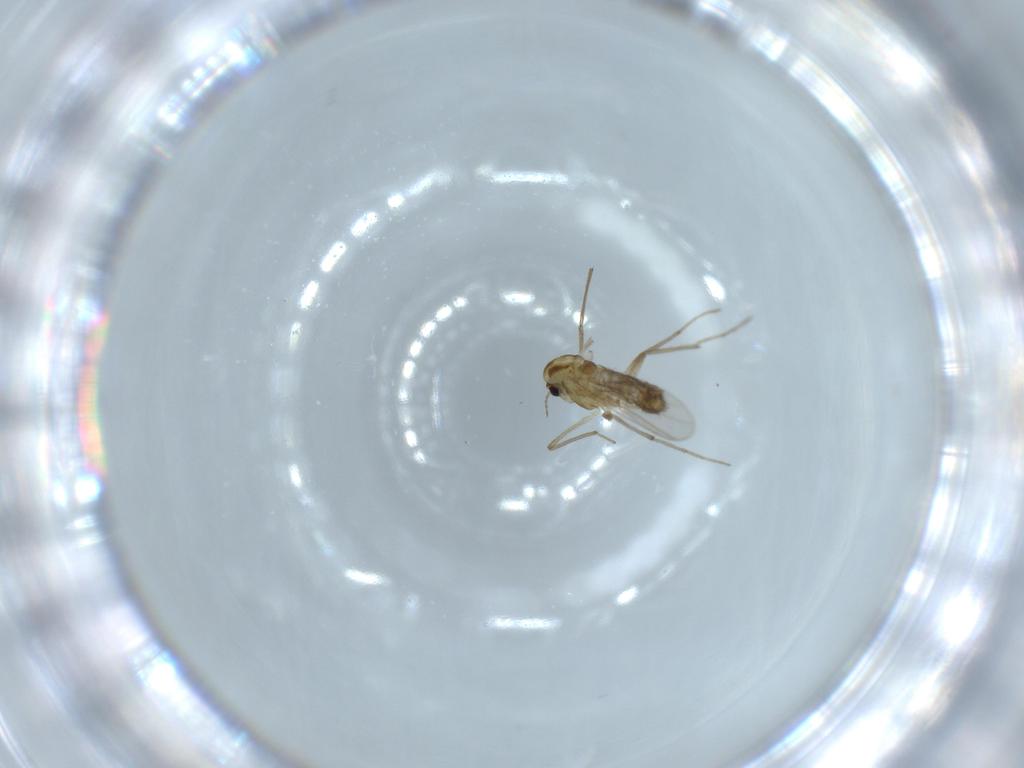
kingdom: Animalia
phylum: Arthropoda
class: Insecta
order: Diptera
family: Chironomidae
